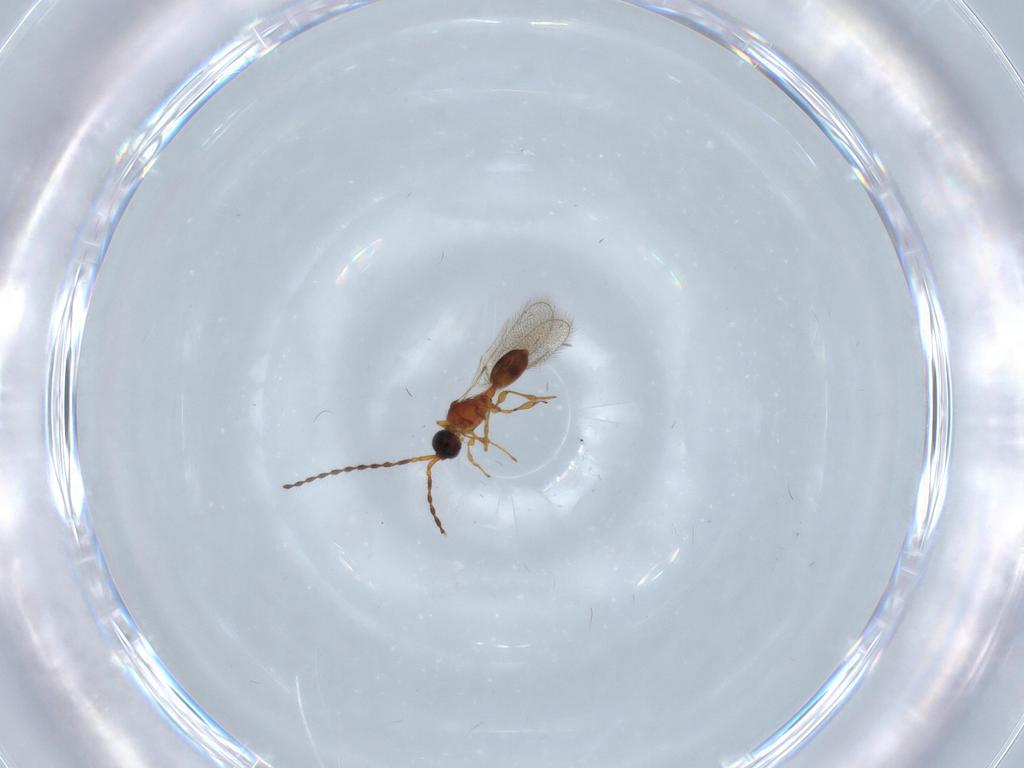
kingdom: Animalia
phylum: Arthropoda
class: Insecta
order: Hymenoptera
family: Diapriidae
